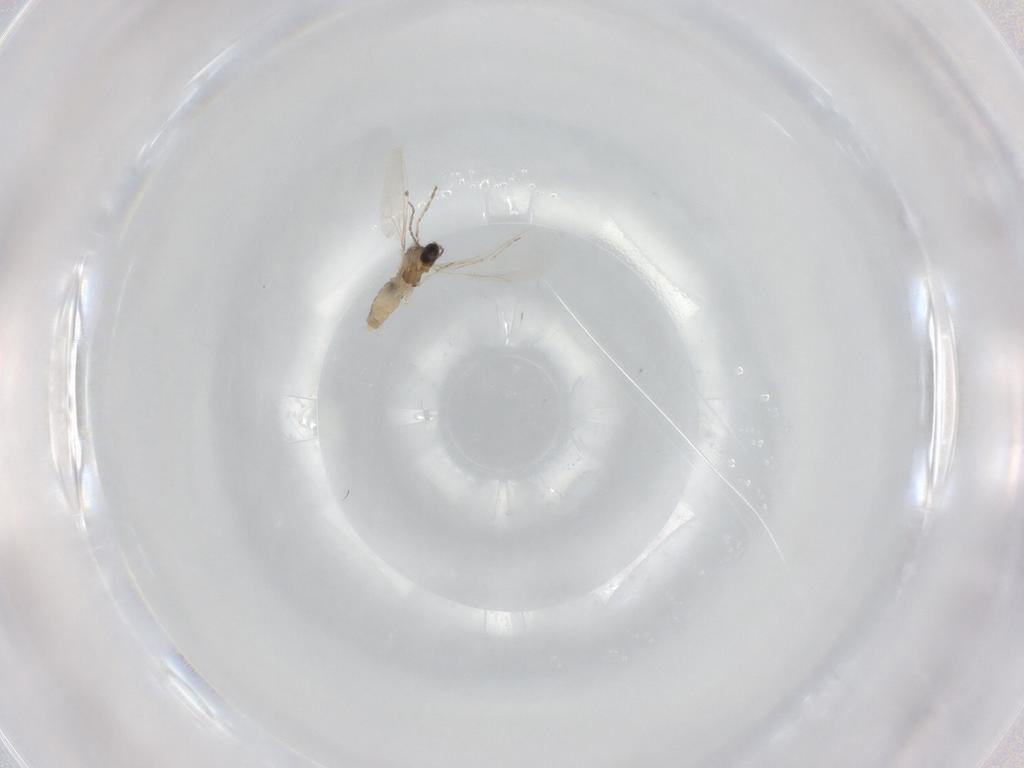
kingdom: Animalia
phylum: Arthropoda
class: Insecta
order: Diptera
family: Cecidomyiidae
